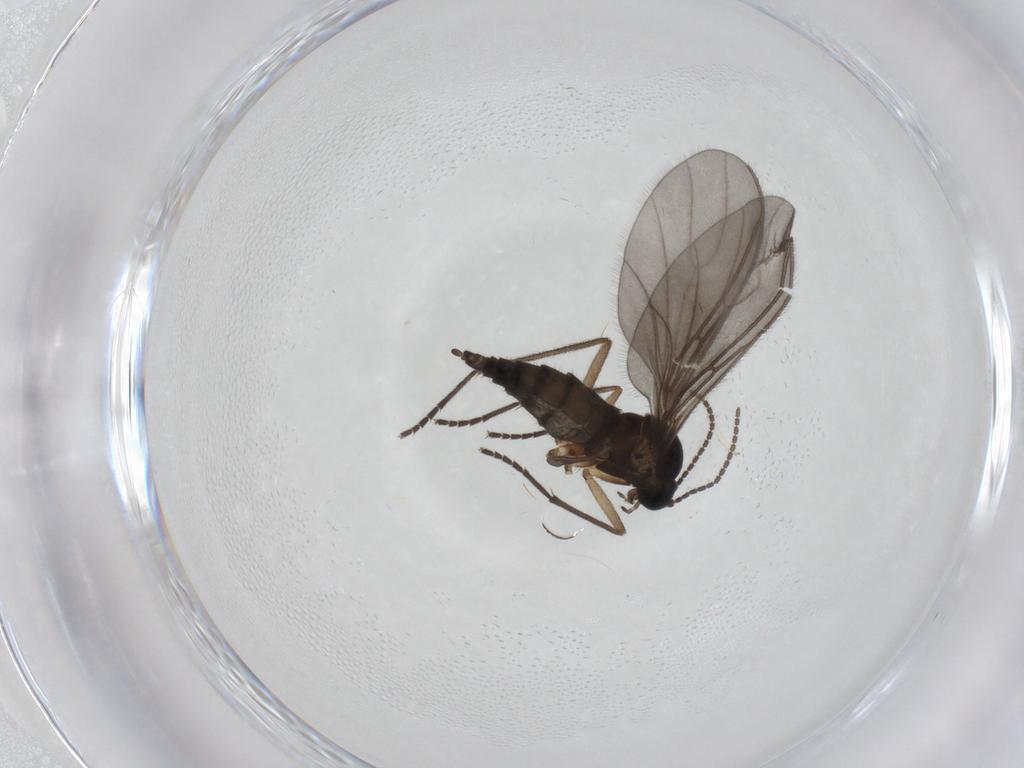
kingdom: Animalia
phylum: Arthropoda
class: Insecta
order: Diptera
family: Sciaridae
